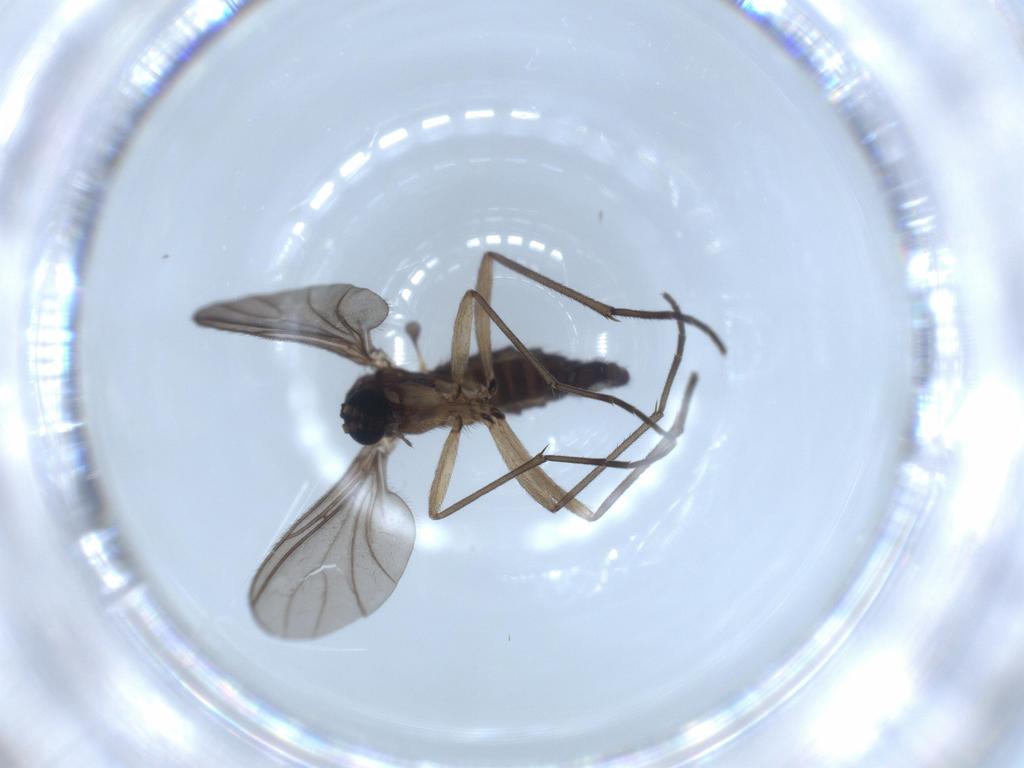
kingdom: Animalia
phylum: Arthropoda
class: Insecta
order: Diptera
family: Sciaridae
